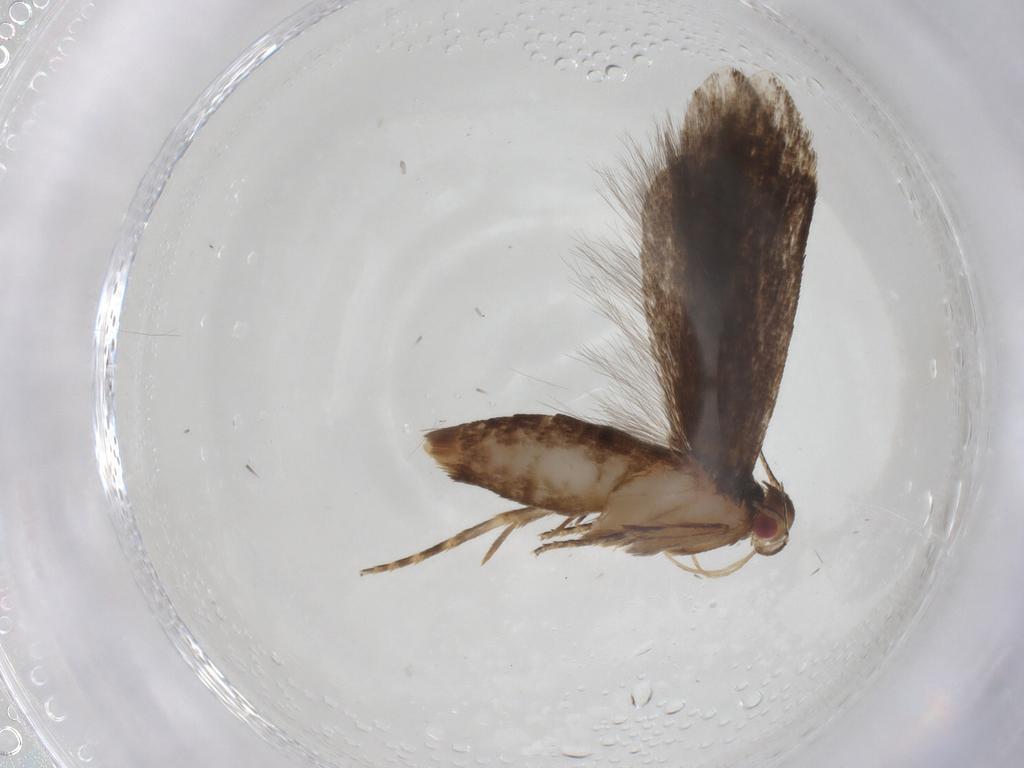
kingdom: Animalia
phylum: Arthropoda
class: Insecta
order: Lepidoptera
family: Gelechiidae
